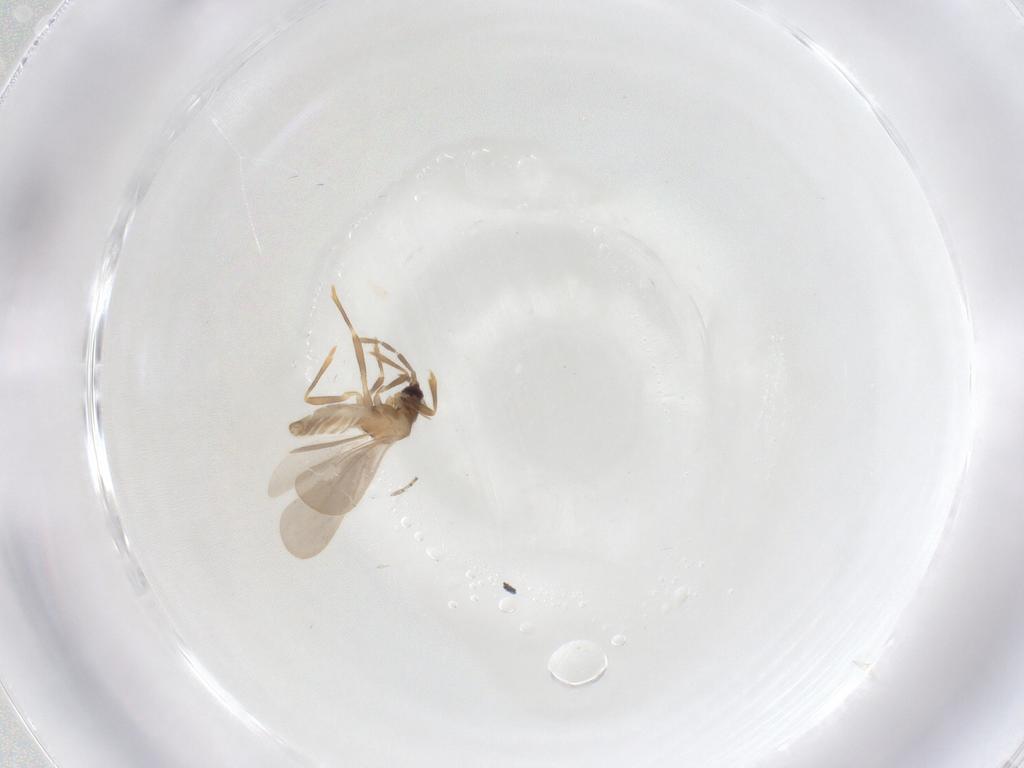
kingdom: Animalia
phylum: Arthropoda
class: Insecta
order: Hemiptera
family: Enicocephalidae
